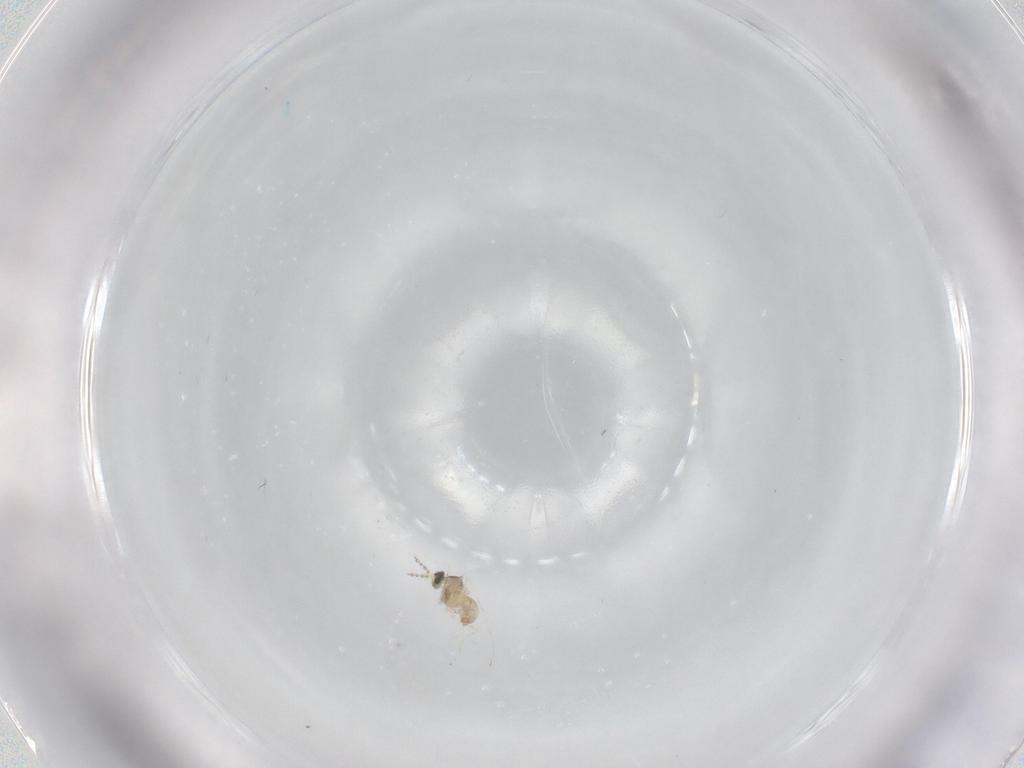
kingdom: Animalia
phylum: Arthropoda
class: Insecta
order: Diptera
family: Cecidomyiidae
